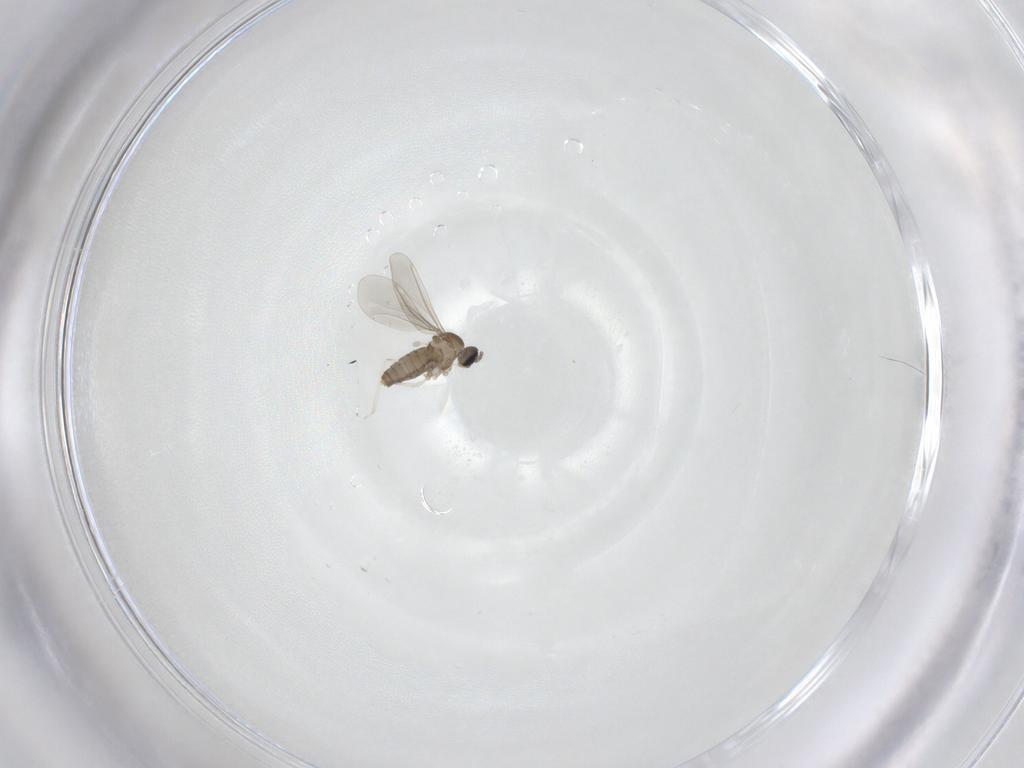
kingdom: Animalia
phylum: Arthropoda
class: Insecta
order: Diptera
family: Cecidomyiidae
